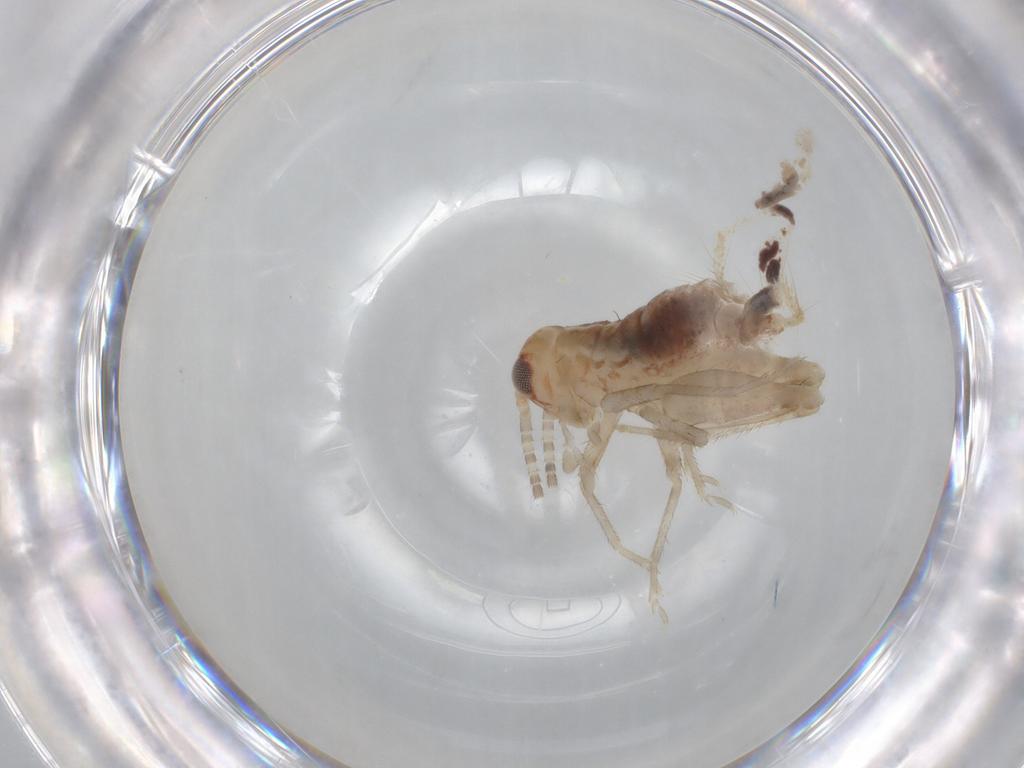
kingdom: Animalia
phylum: Arthropoda
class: Insecta
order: Orthoptera
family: Gryllidae
